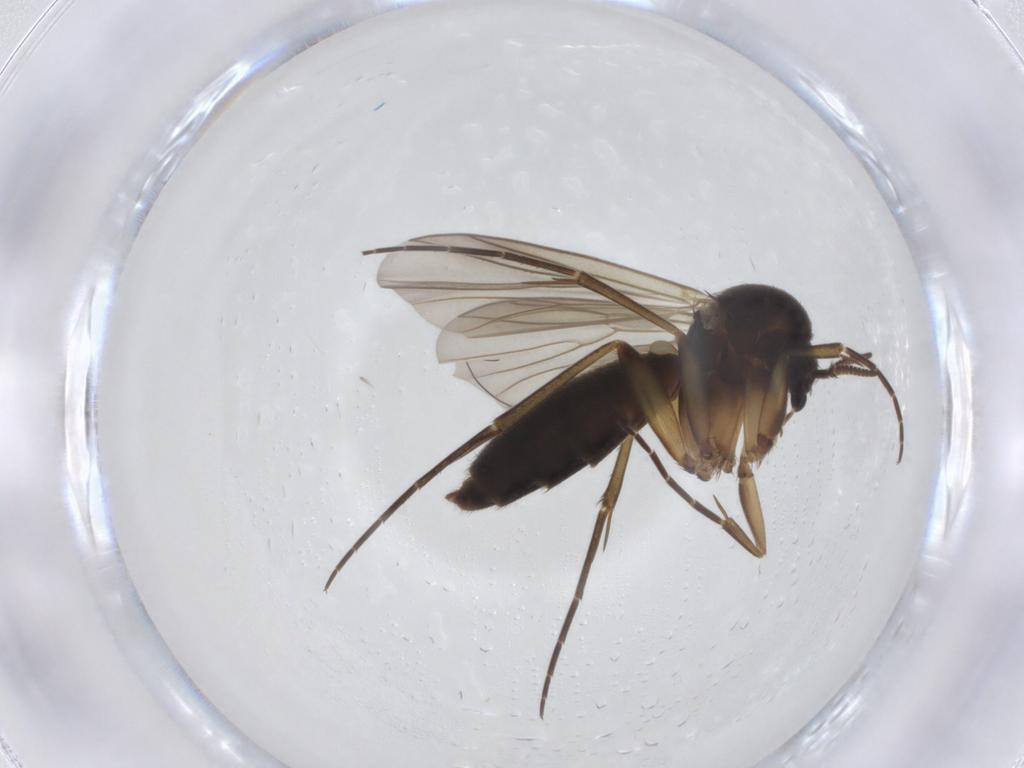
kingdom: Animalia
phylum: Arthropoda
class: Insecta
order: Diptera
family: Mycetophilidae
